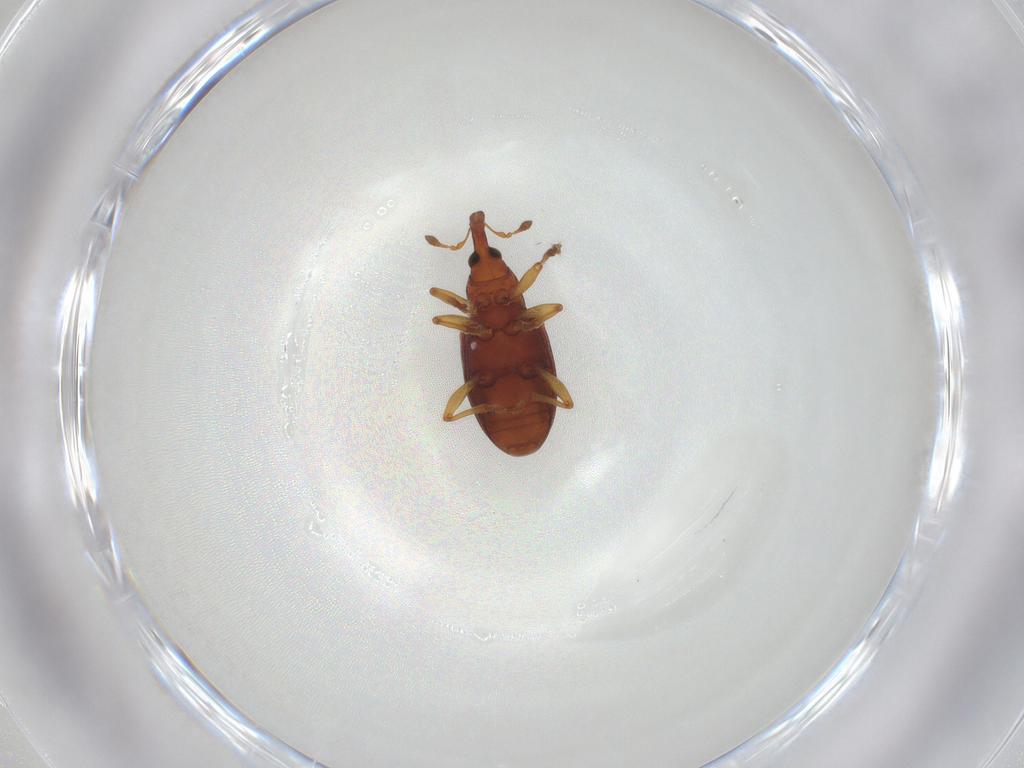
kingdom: Animalia
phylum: Arthropoda
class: Insecta
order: Coleoptera
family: Curculionidae
